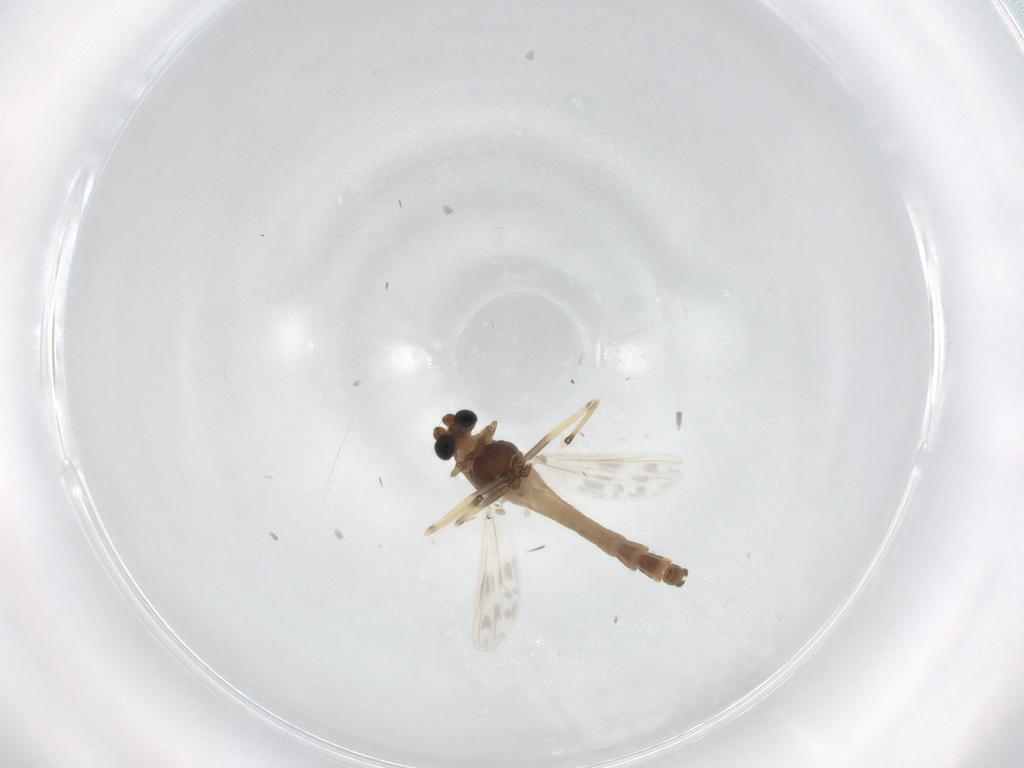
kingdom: Animalia
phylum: Arthropoda
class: Insecta
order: Diptera
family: Chironomidae
